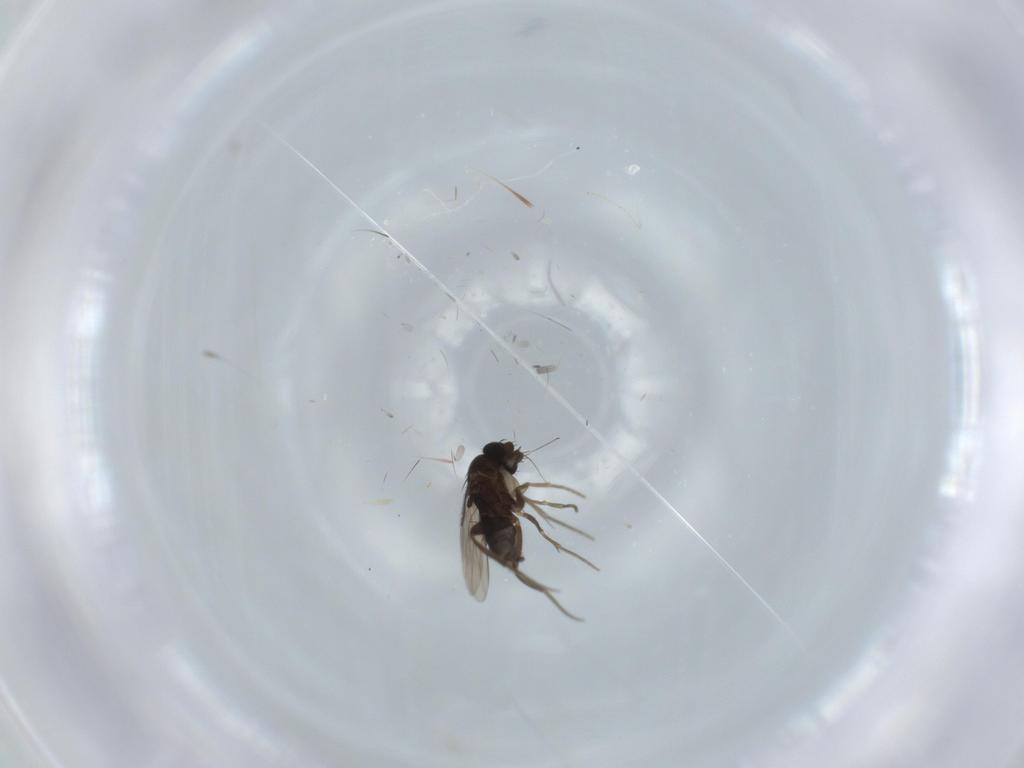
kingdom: Animalia
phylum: Arthropoda
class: Insecta
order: Diptera
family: Phoridae
